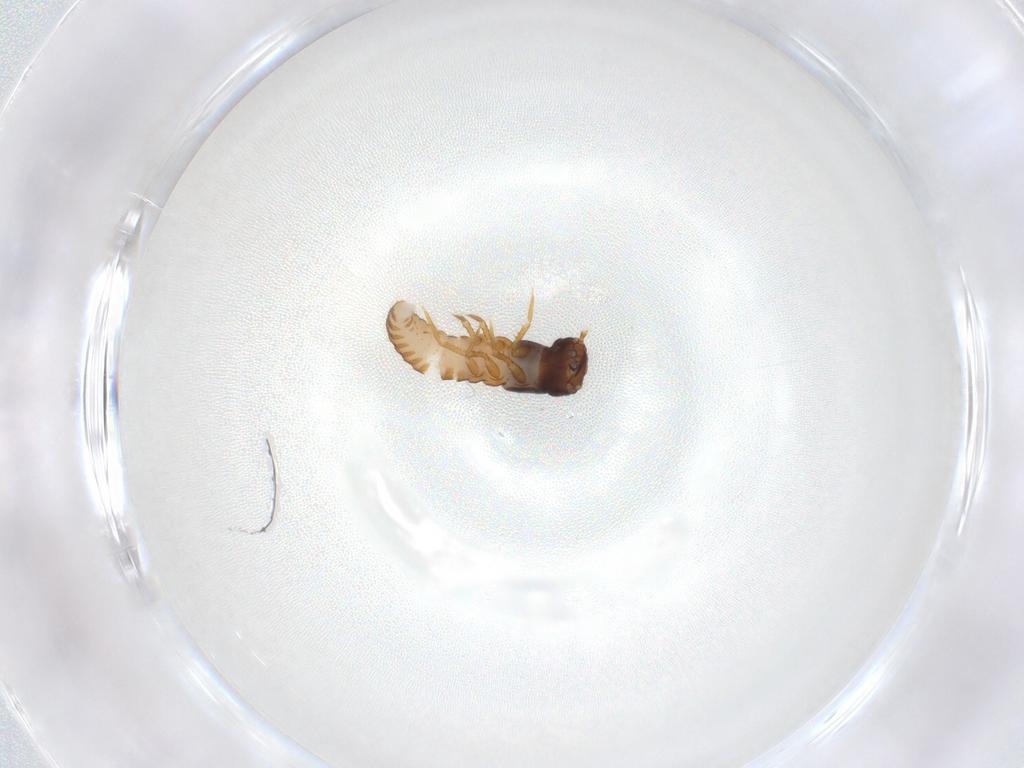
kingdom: Animalia
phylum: Arthropoda
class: Insecta
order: Coleoptera
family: Meloidae
